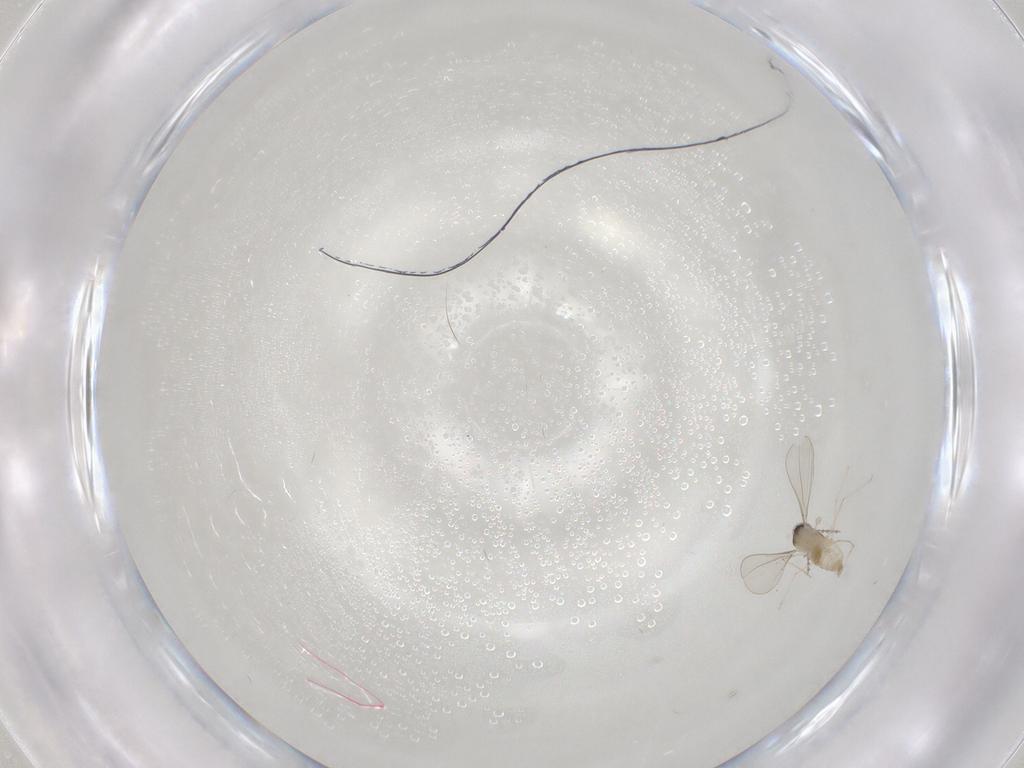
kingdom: Animalia
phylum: Arthropoda
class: Insecta
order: Diptera
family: Cecidomyiidae
